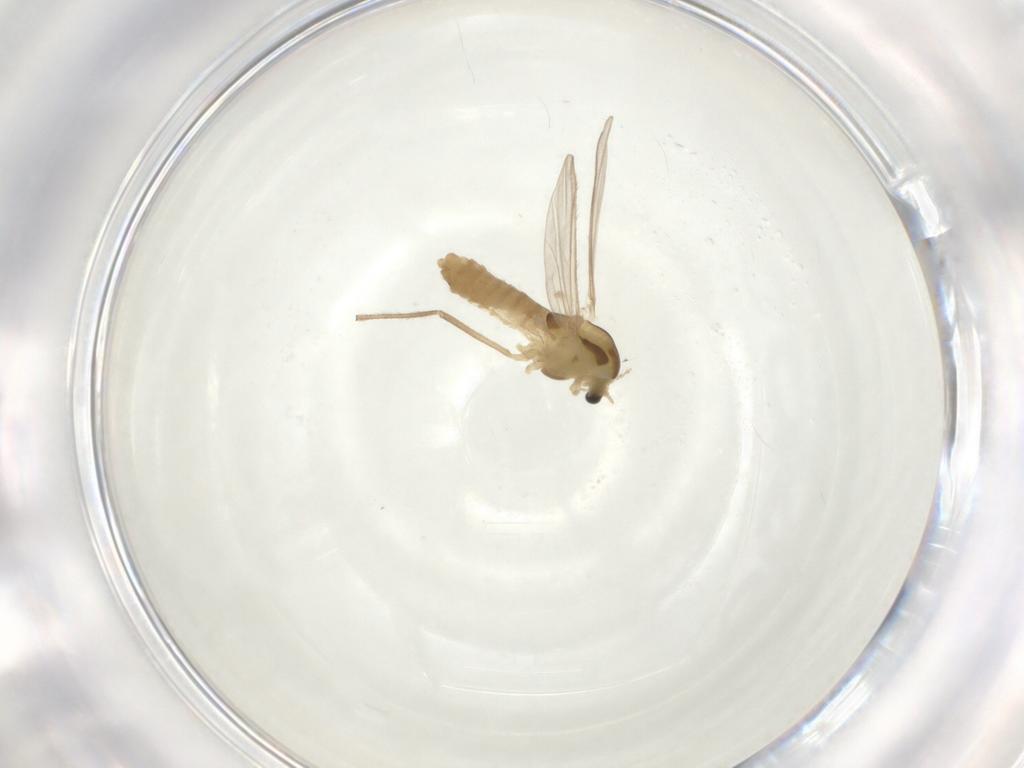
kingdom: Animalia
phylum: Arthropoda
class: Insecta
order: Diptera
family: Chironomidae
